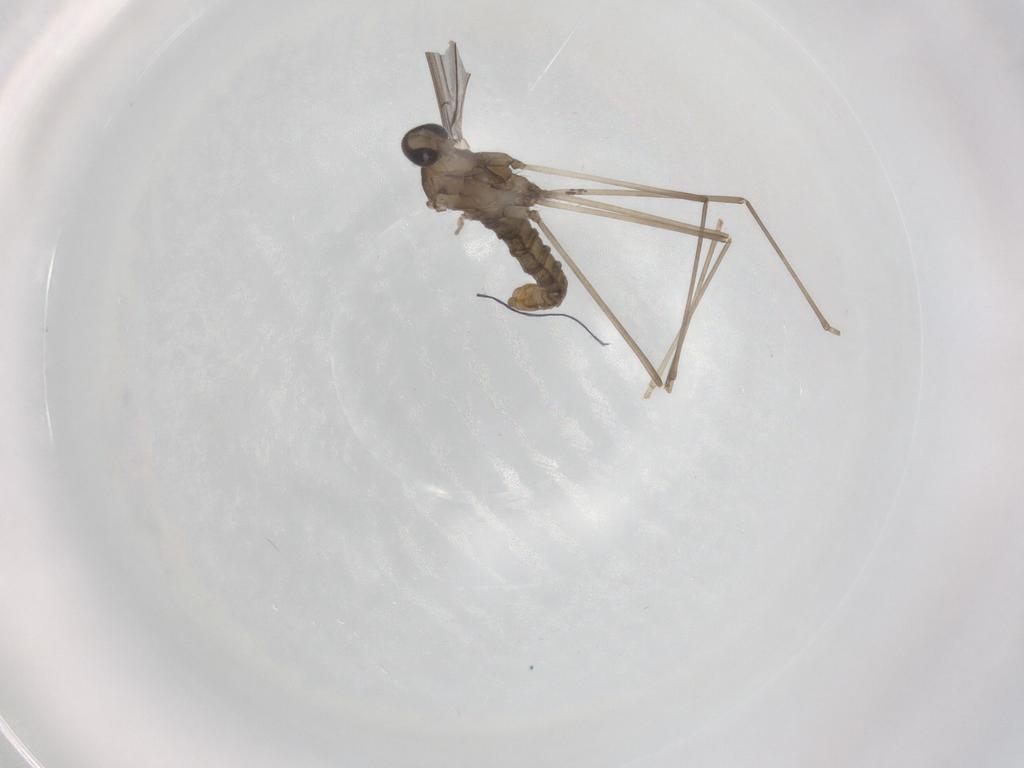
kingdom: Animalia
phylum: Arthropoda
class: Insecta
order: Diptera
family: Cecidomyiidae
